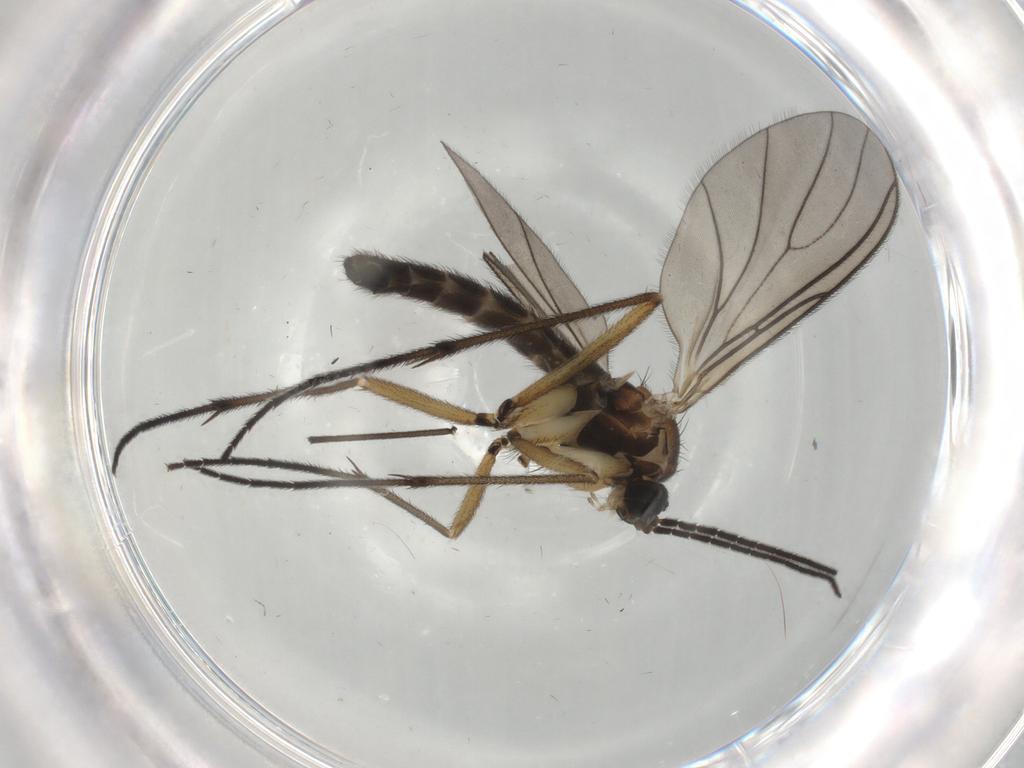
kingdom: Animalia
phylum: Arthropoda
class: Insecta
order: Diptera
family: Sciaridae
